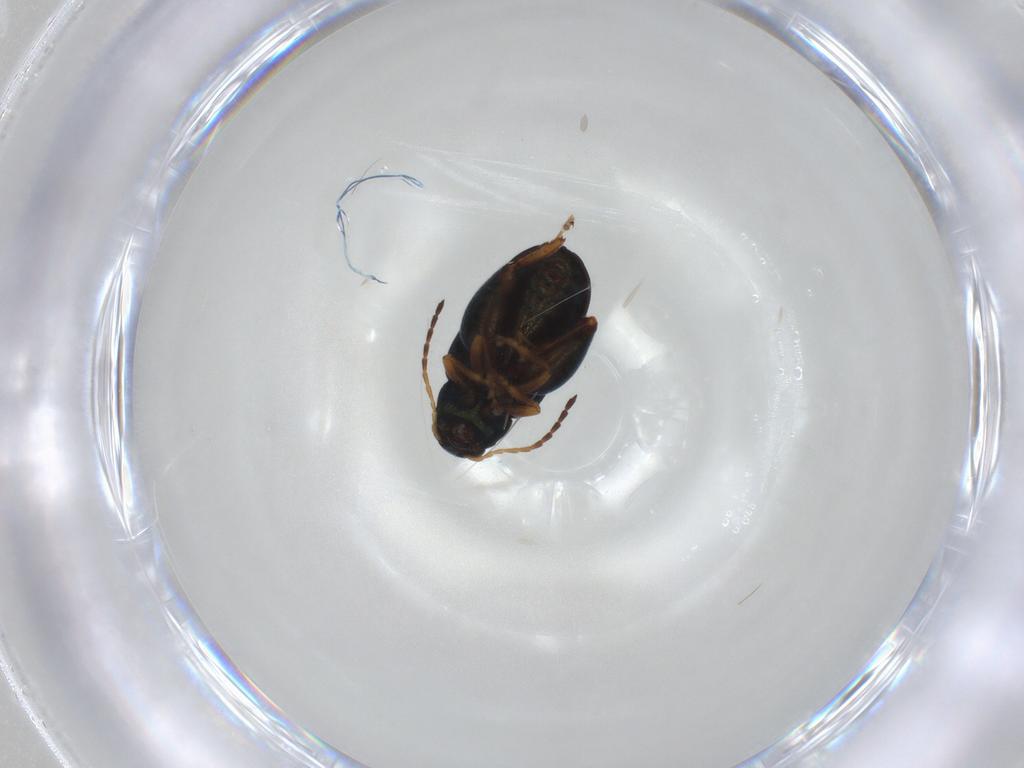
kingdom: Animalia
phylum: Arthropoda
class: Insecta
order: Coleoptera
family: Chrysomelidae
